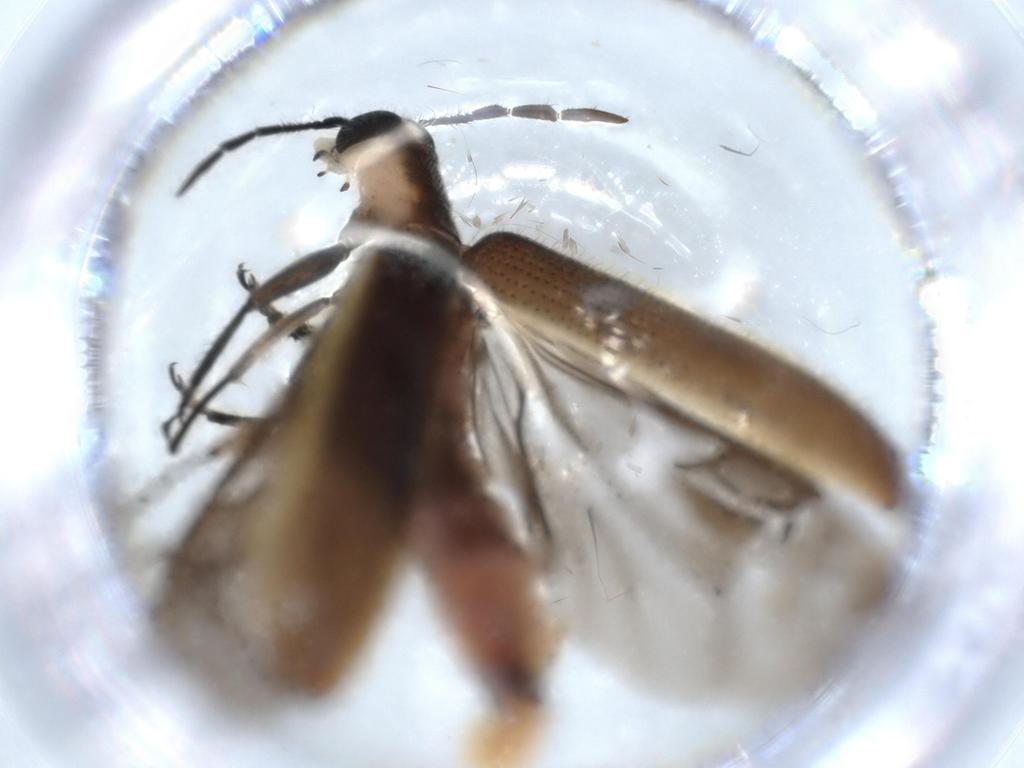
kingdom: Animalia
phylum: Arthropoda
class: Insecta
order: Coleoptera
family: Cleridae
